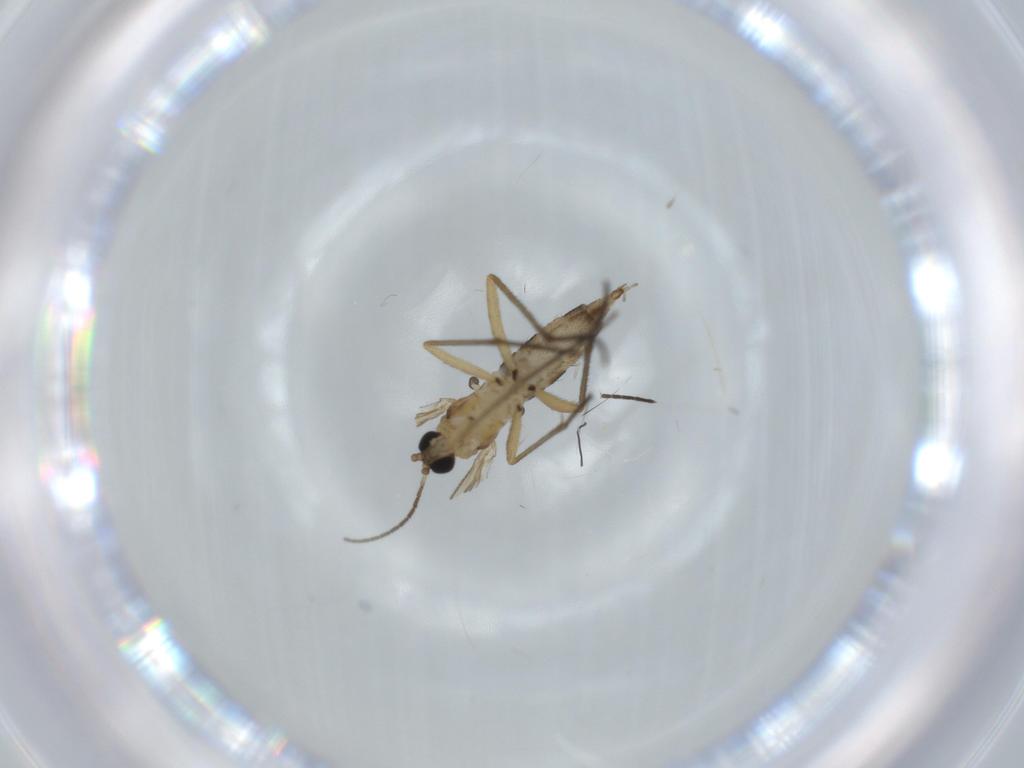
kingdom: Animalia
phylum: Arthropoda
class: Insecta
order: Diptera
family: Sciaridae
